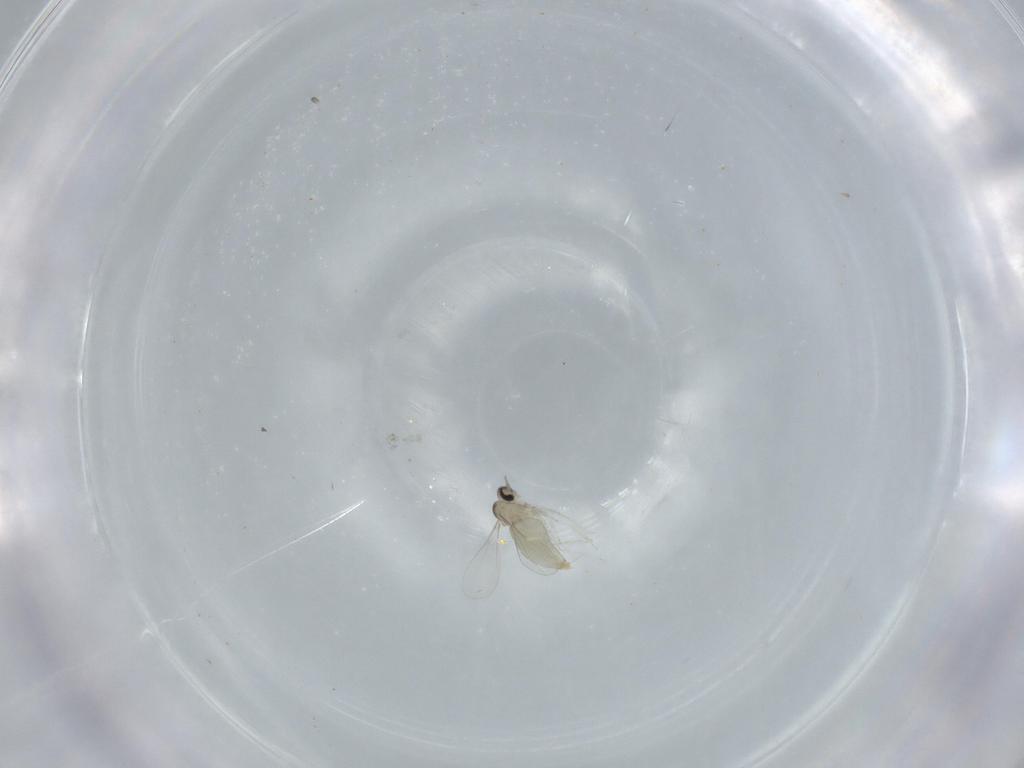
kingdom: Animalia
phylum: Arthropoda
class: Insecta
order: Diptera
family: Cecidomyiidae
